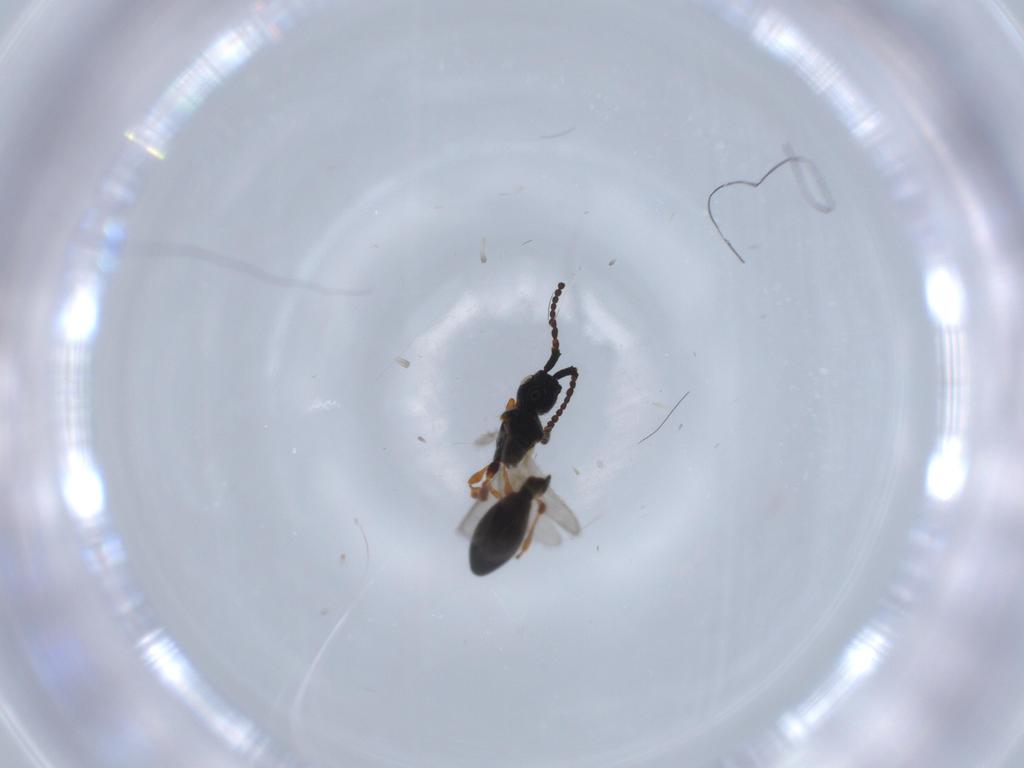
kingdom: Animalia
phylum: Arthropoda
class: Insecta
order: Hymenoptera
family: Diapriidae
